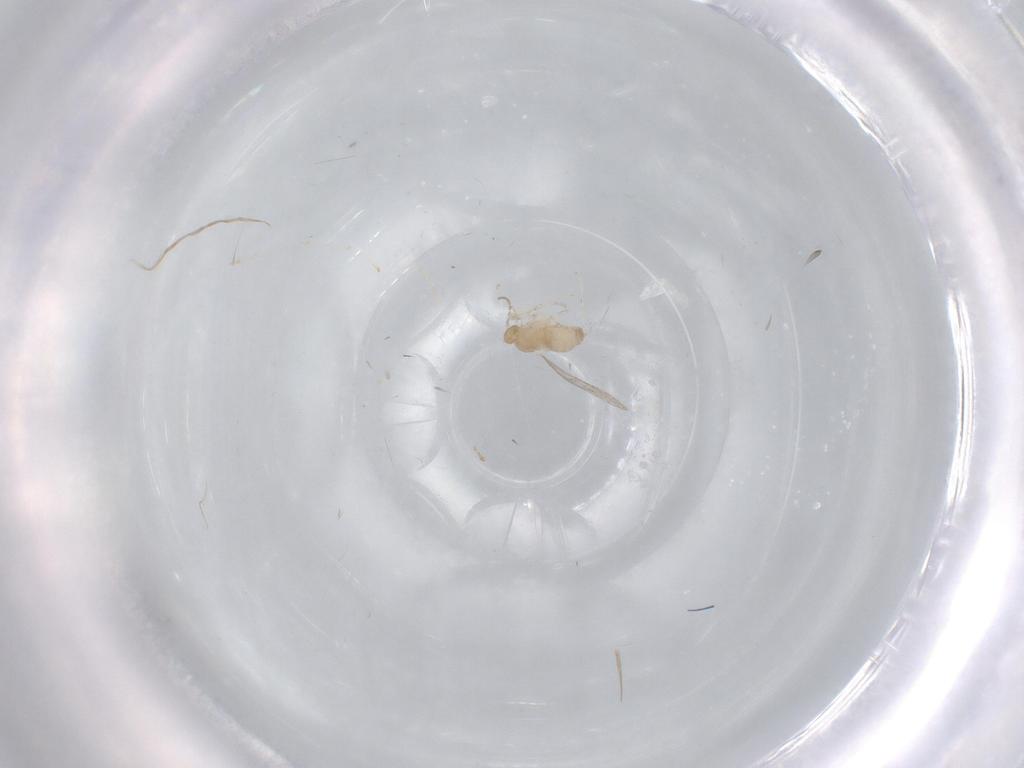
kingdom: Animalia
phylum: Arthropoda
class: Insecta
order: Diptera
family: Cecidomyiidae
